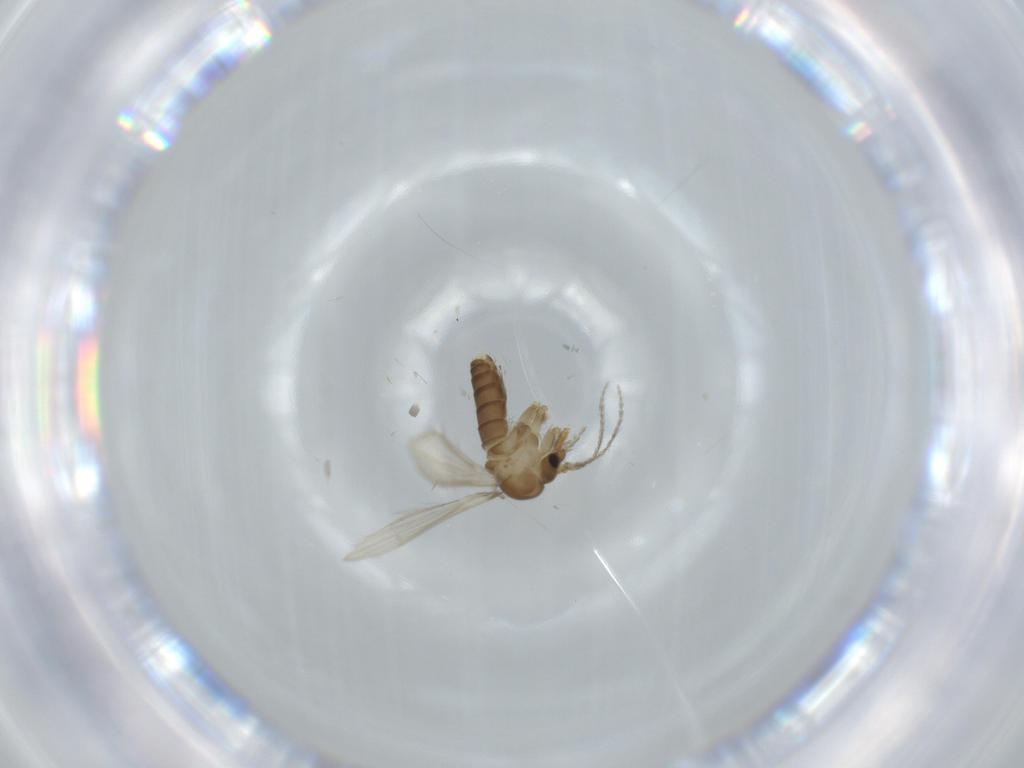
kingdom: Animalia
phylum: Arthropoda
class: Insecta
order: Diptera
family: Psychodidae
